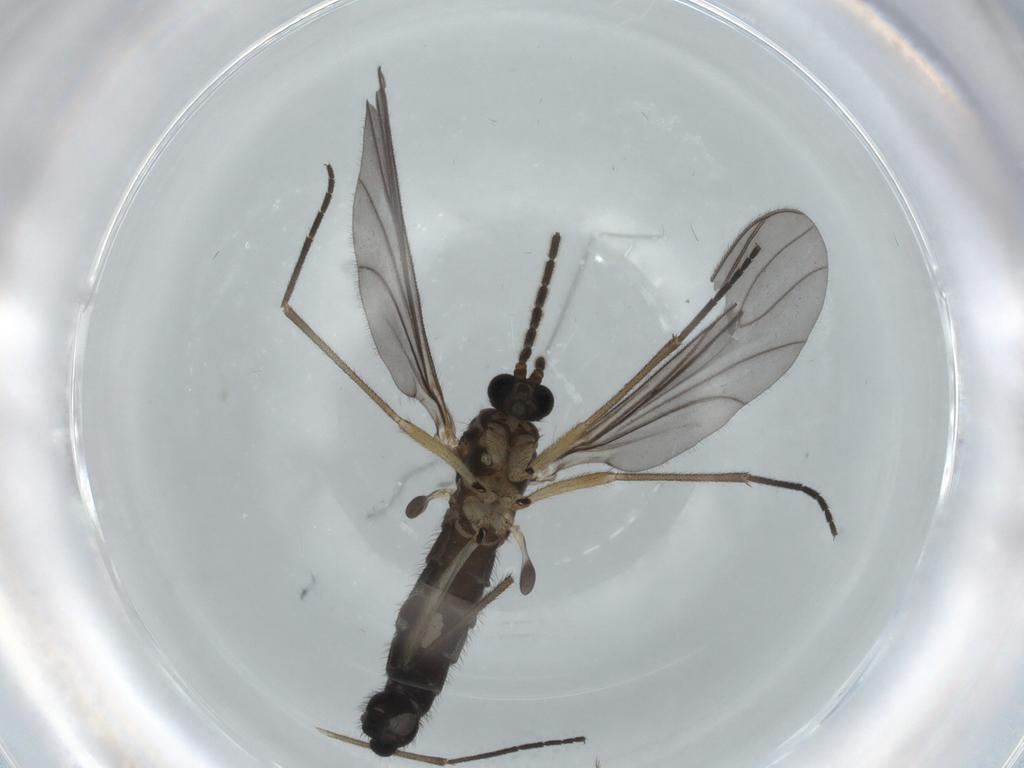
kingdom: Animalia
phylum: Arthropoda
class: Insecta
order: Diptera
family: Sciaridae
